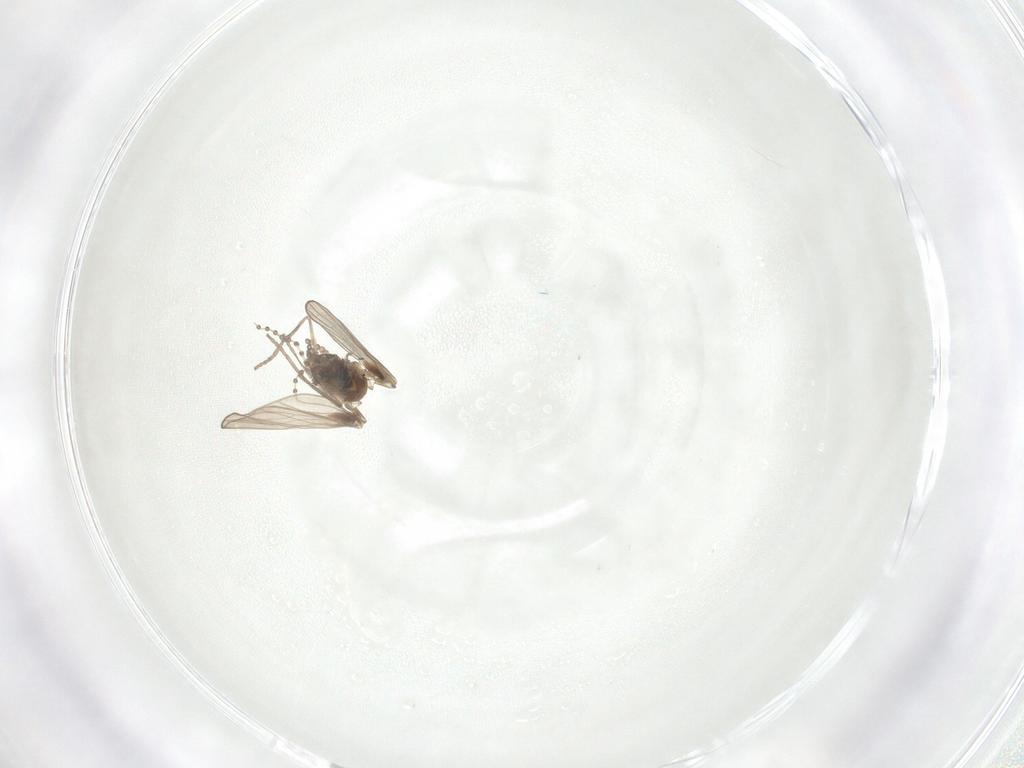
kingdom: Animalia
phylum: Arthropoda
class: Insecta
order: Diptera
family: Psychodidae
